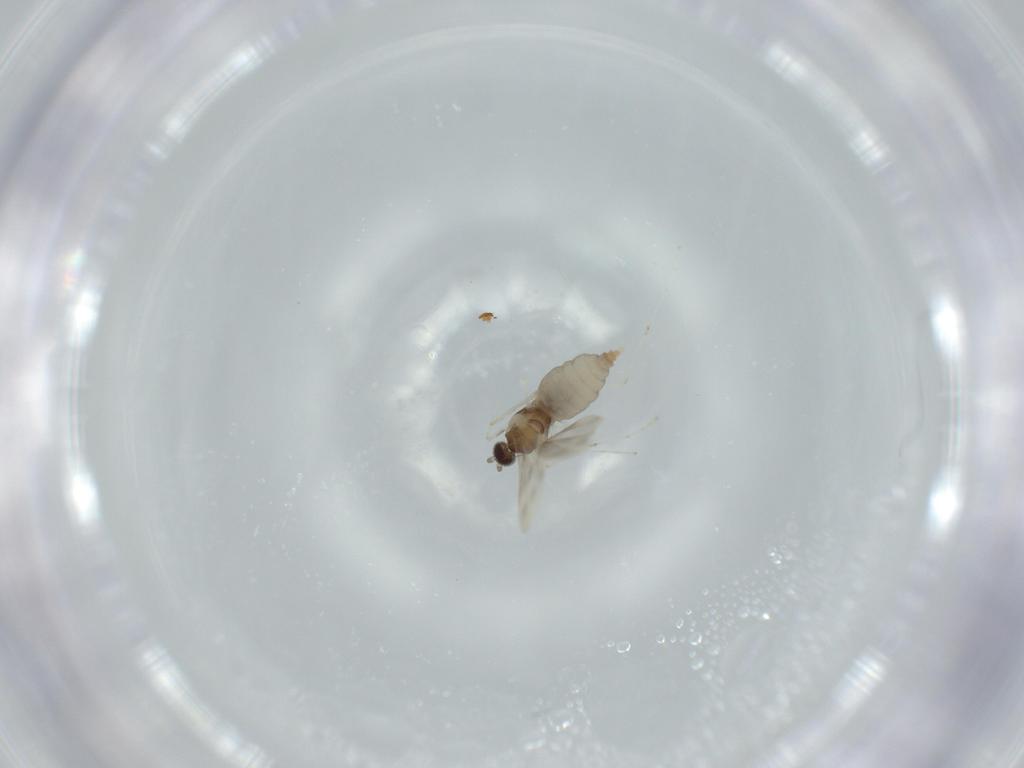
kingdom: Animalia
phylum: Arthropoda
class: Insecta
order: Diptera
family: Cecidomyiidae
